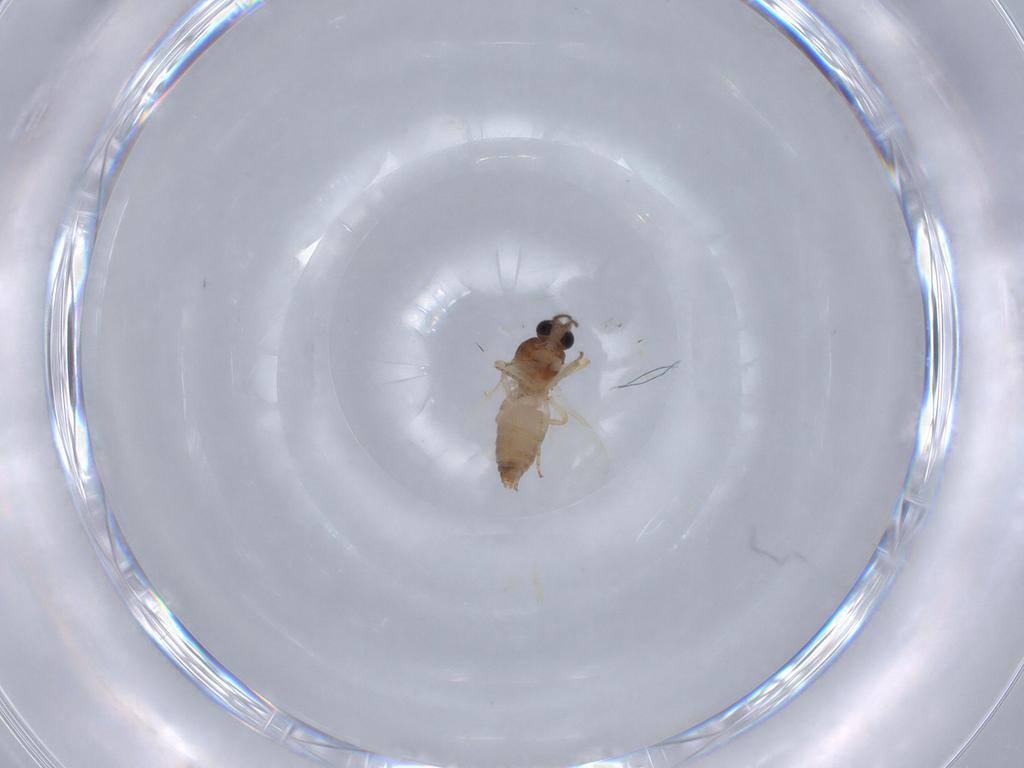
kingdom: Animalia
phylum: Arthropoda
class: Insecta
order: Diptera
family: Ceratopogonidae
